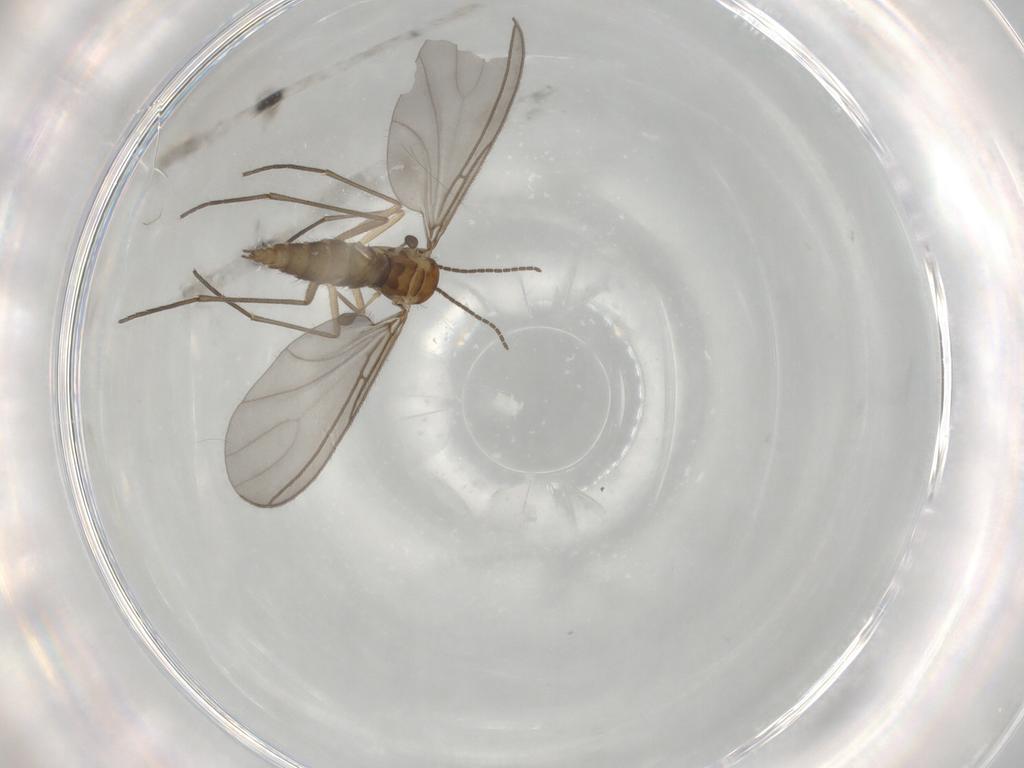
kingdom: Animalia
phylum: Arthropoda
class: Insecta
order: Diptera
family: Sciaridae
